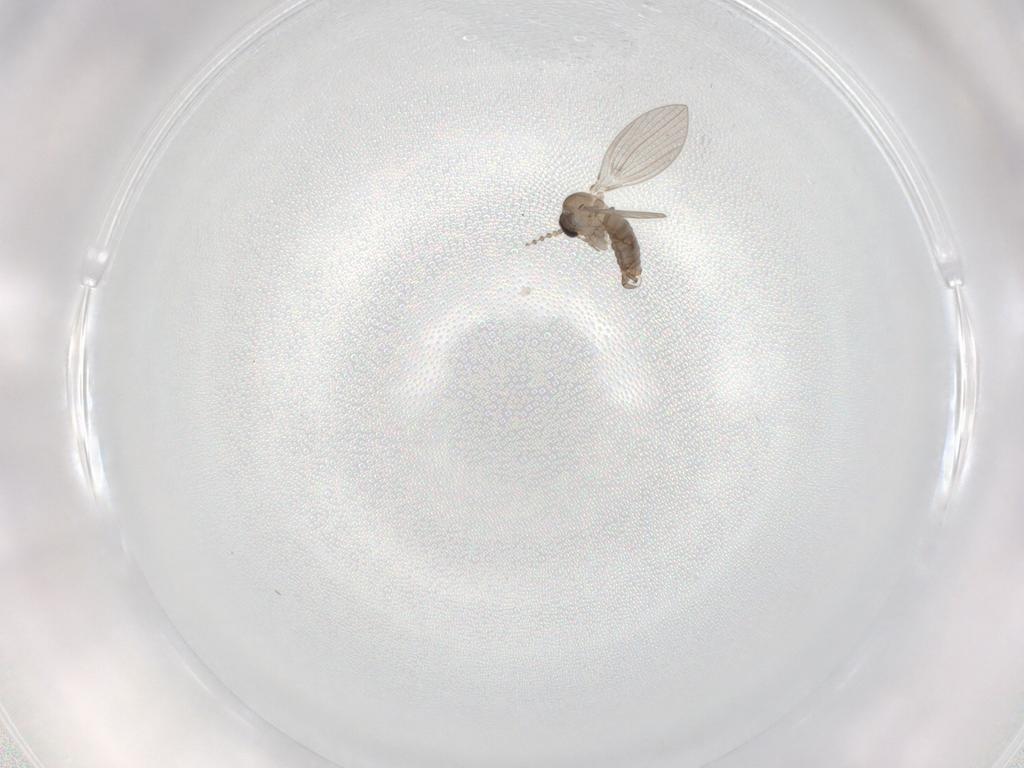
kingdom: Animalia
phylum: Arthropoda
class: Insecta
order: Diptera
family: Psychodidae
